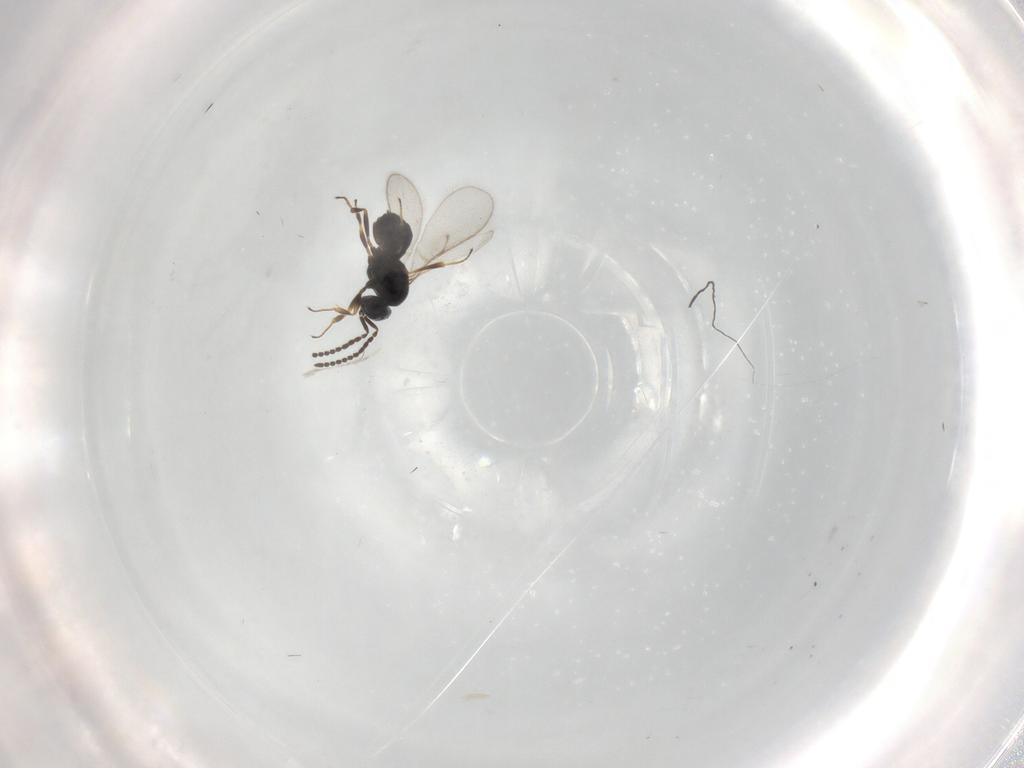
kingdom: Animalia
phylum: Arthropoda
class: Insecta
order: Hymenoptera
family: Scelionidae
